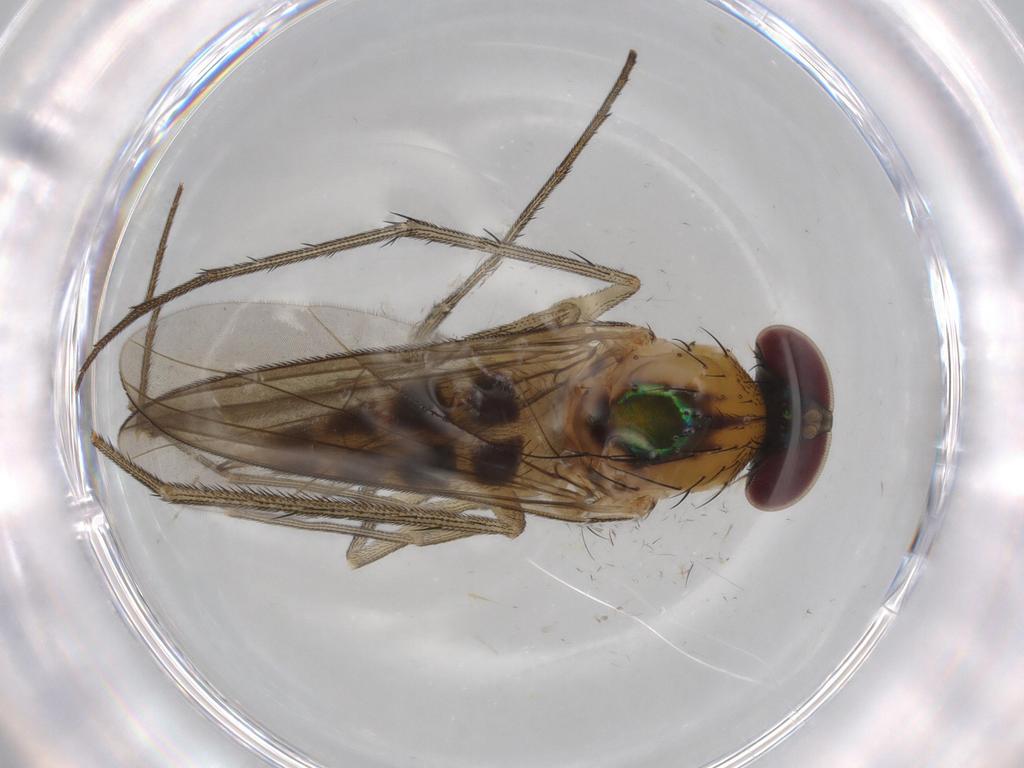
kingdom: Animalia
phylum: Arthropoda
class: Insecta
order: Diptera
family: Dolichopodidae
